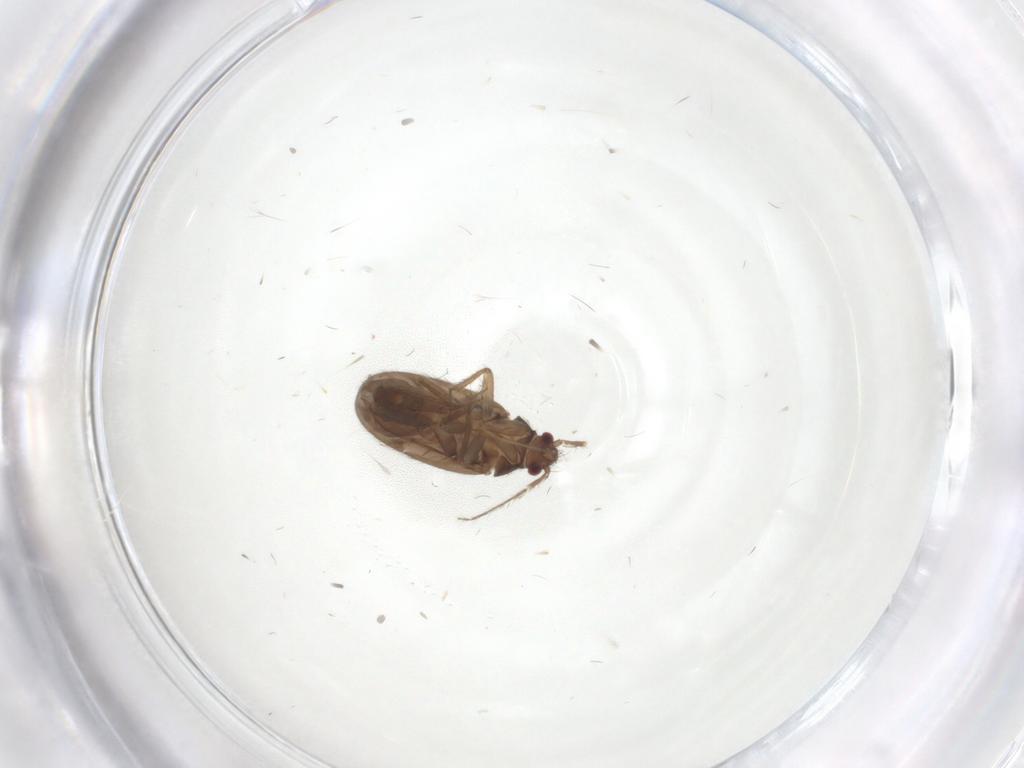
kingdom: Animalia
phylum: Arthropoda
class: Insecta
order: Hemiptera
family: Ceratocombidae
